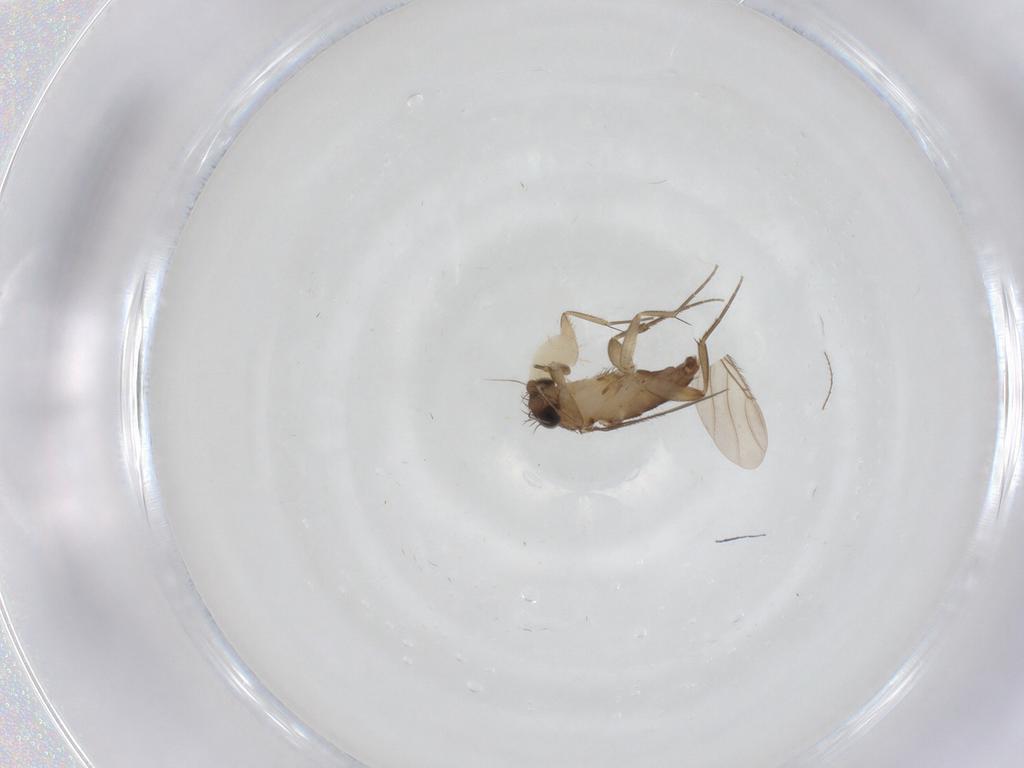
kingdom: Animalia
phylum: Arthropoda
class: Insecta
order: Diptera
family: Phoridae
